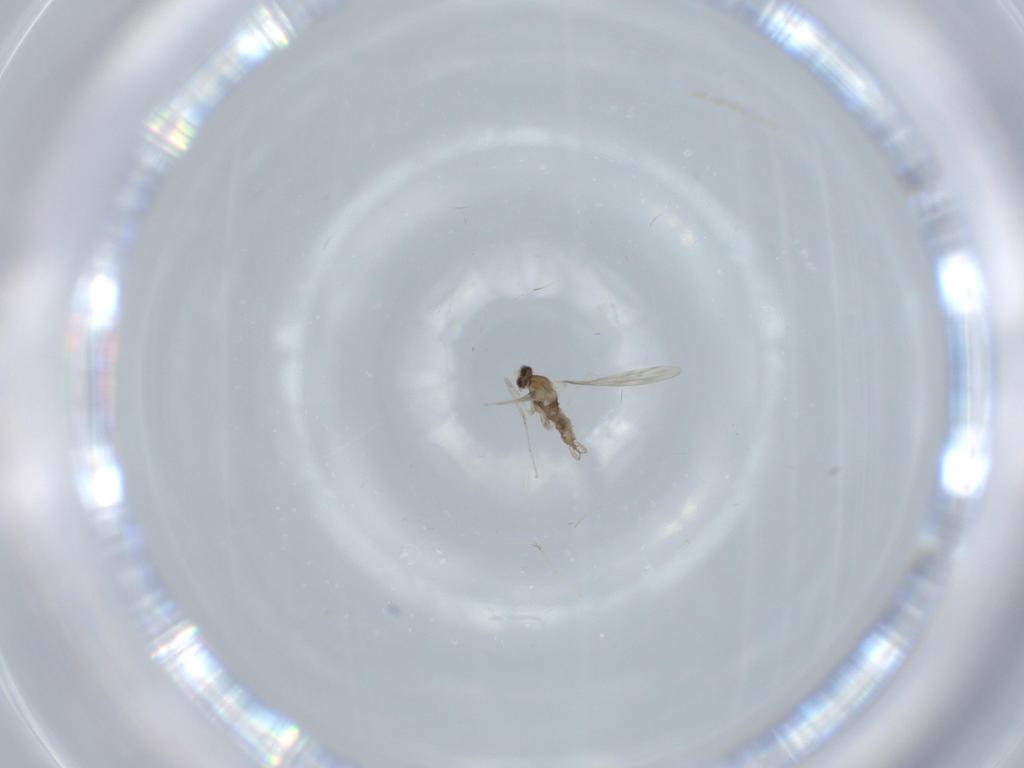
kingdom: Animalia
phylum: Arthropoda
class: Insecta
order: Diptera
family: Cecidomyiidae
